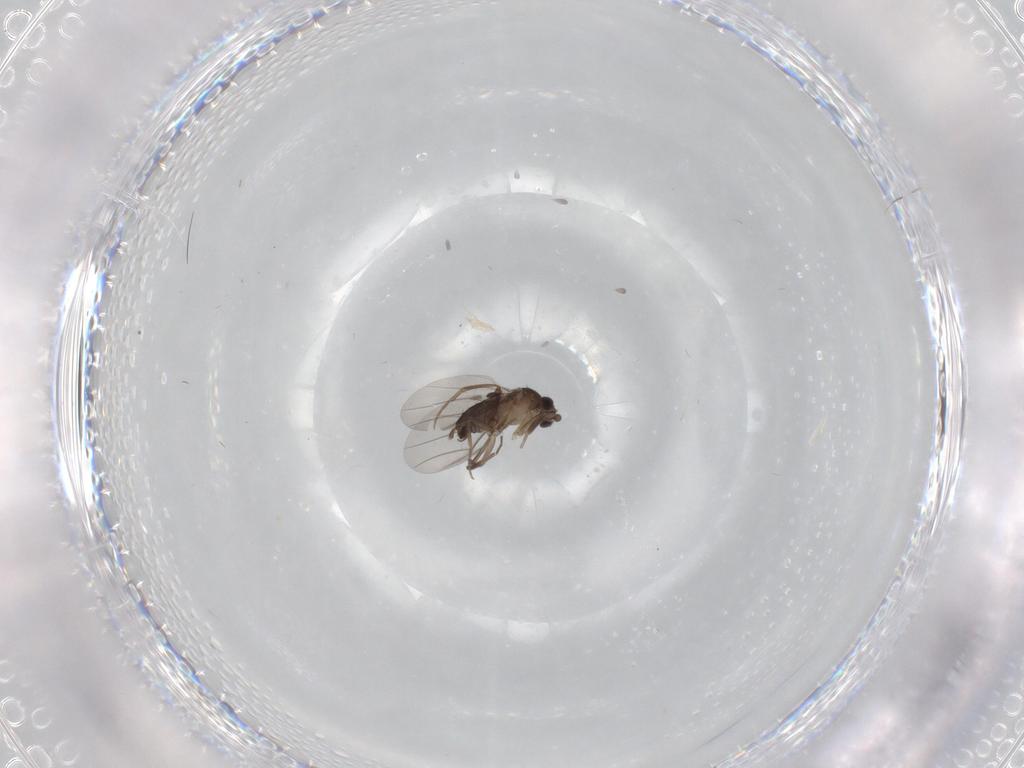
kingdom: Animalia
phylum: Arthropoda
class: Insecta
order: Diptera
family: Phoridae
